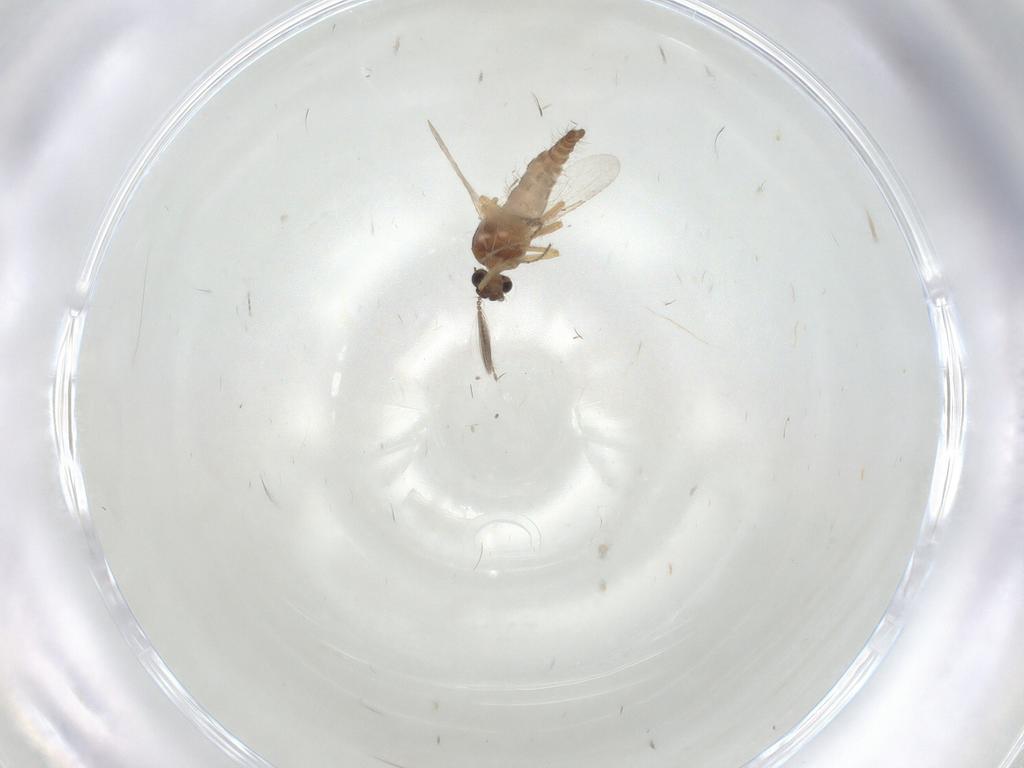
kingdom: Animalia
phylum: Arthropoda
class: Insecta
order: Diptera
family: Ceratopogonidae
